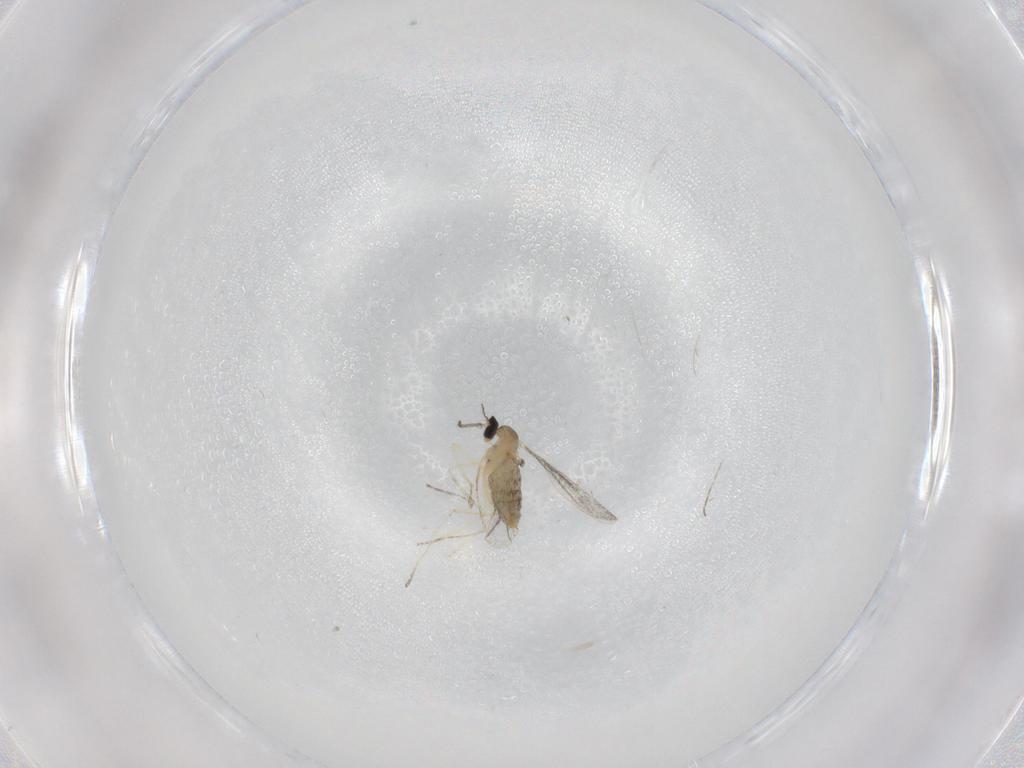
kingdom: Animalia
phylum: Arthropoda
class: Insecta
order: Diptera
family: Cecidomyiidae
